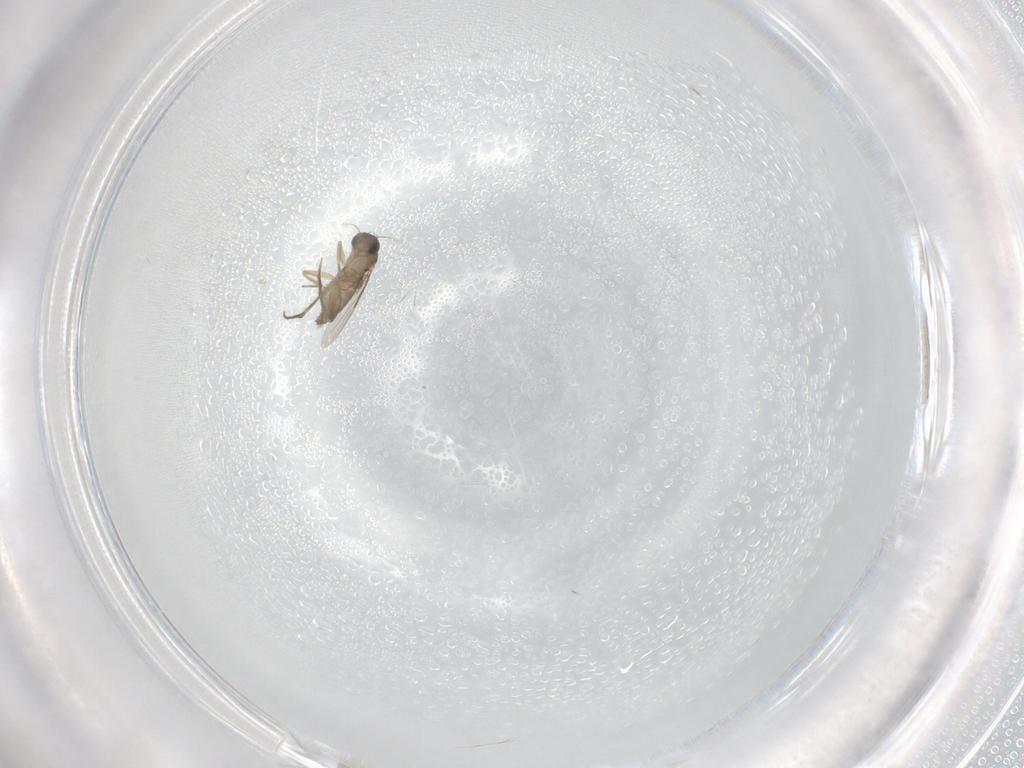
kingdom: Animalia
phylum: Arthropoda
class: Insecta
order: Diptera
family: Ceratopogonidae
